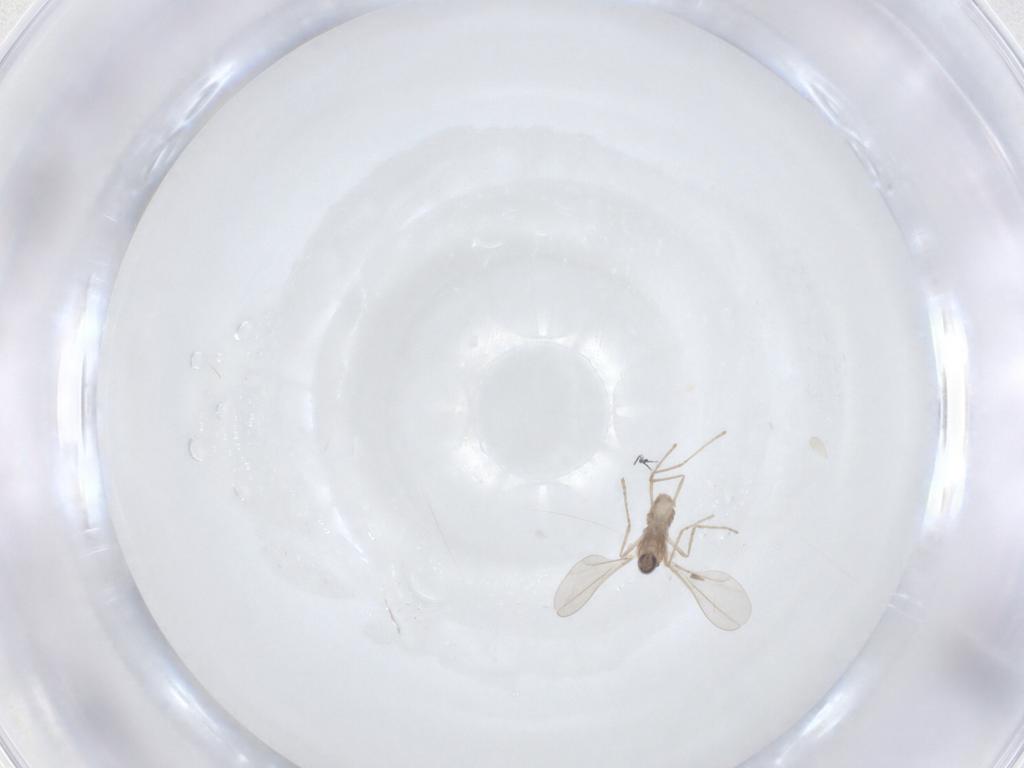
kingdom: Animalia
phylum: Arthropoda
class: Insecta
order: Diptera
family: Cecidomyiidae
